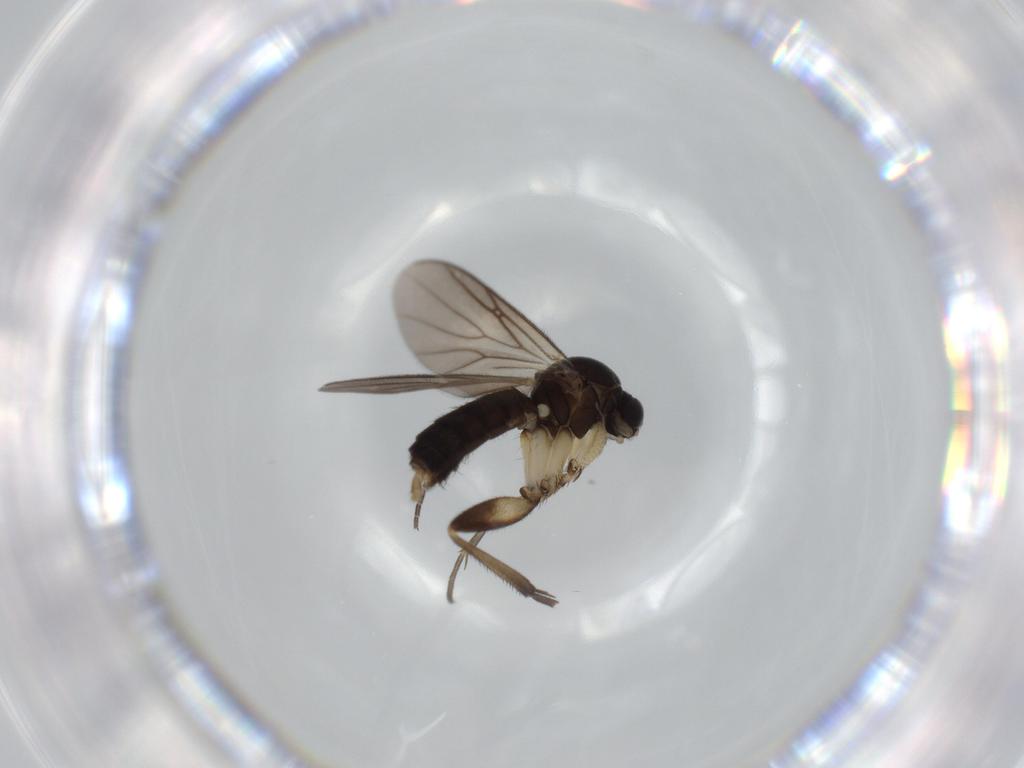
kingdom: Animalia
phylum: Arthropoda
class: Insecta
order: Diptera
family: Mycetophilidae
